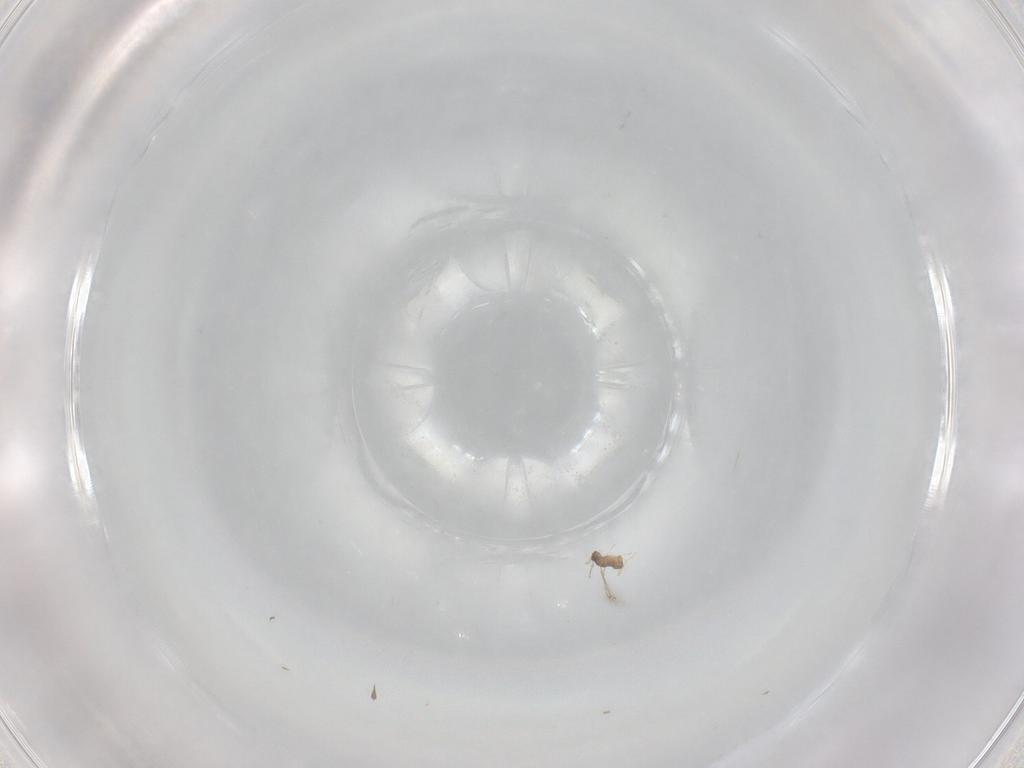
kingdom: Animalia
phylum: Arthropoda
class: Insecta
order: Hymenoptera
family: Mymaridae
